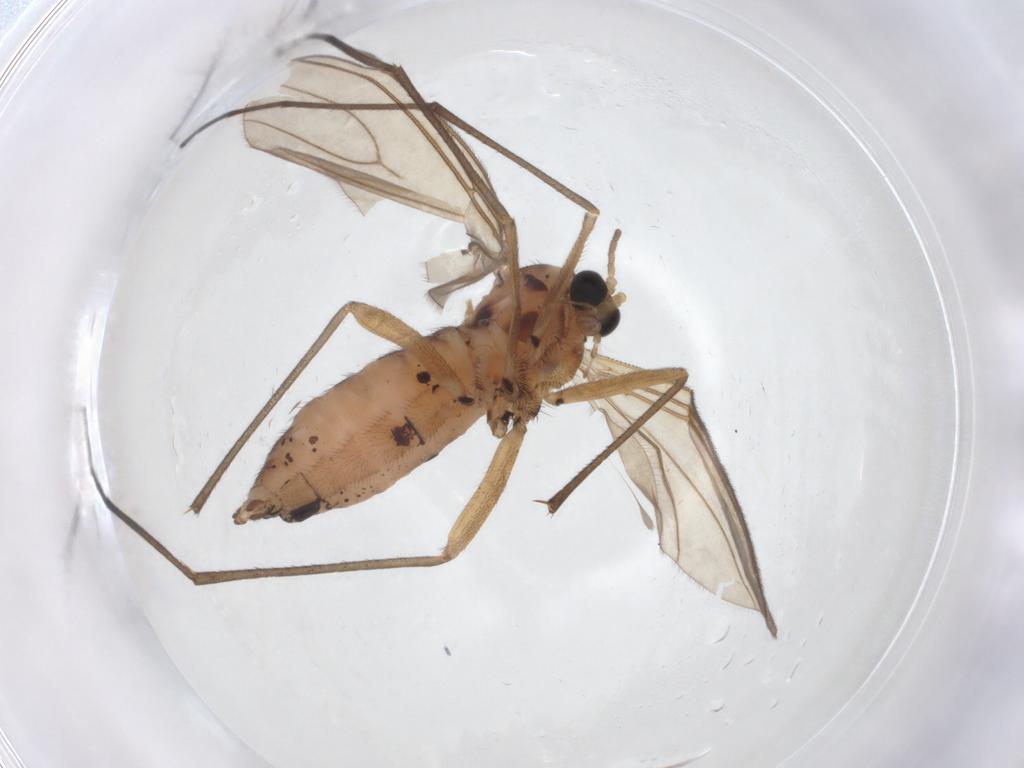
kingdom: Animalia
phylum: Arthropoda
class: Insecta
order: Diptera
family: Sciaridae
